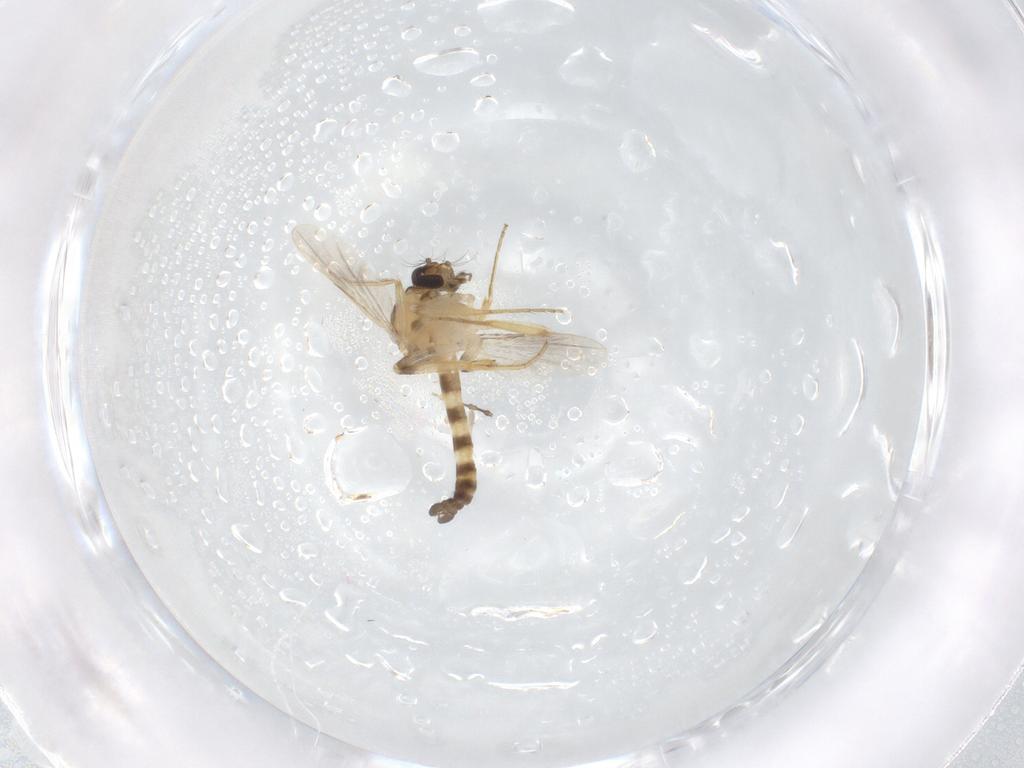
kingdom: Animalia
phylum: Arthropoda
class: Insecta
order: Diptera
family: Ceratopogonidae
